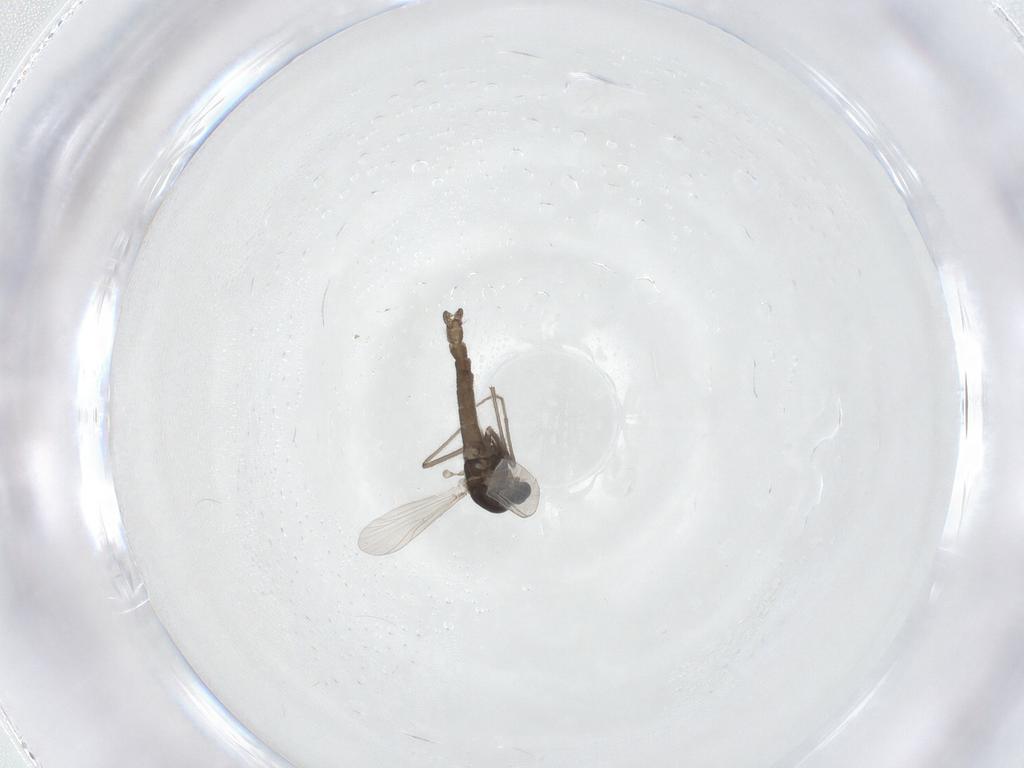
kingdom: Animalia
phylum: Arthropoda
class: Insecta
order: Diptera
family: Chironomidae
